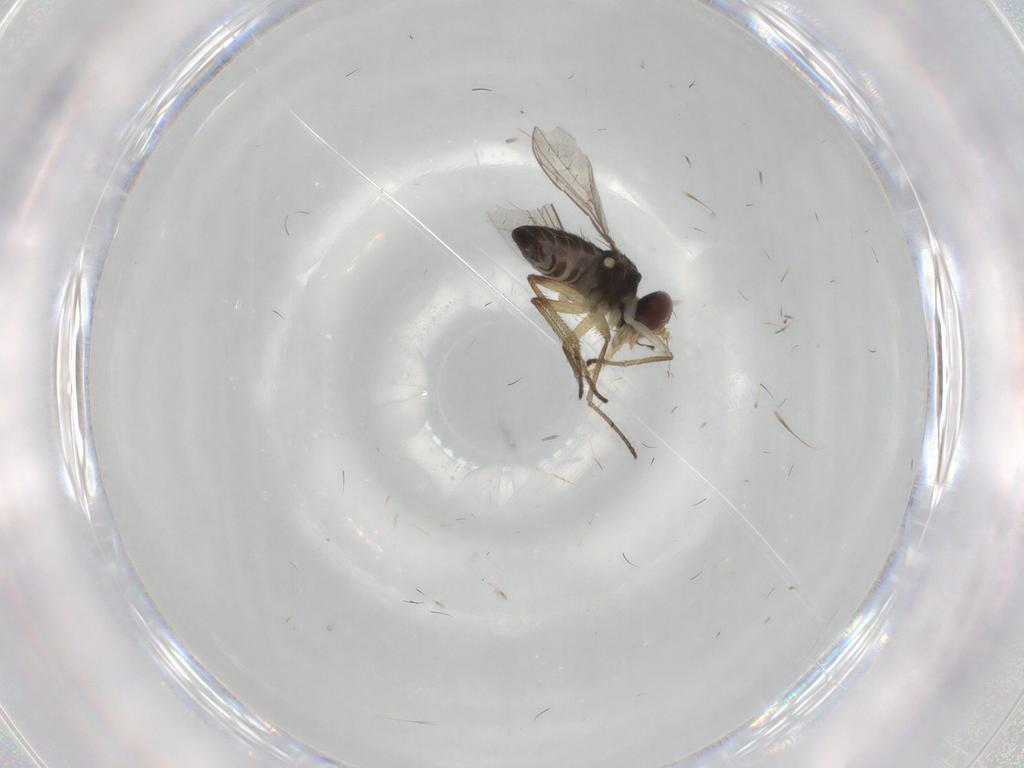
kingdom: Animalia
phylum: Arthropoda
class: Insecta
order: Diptera
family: Dolichopodidae
